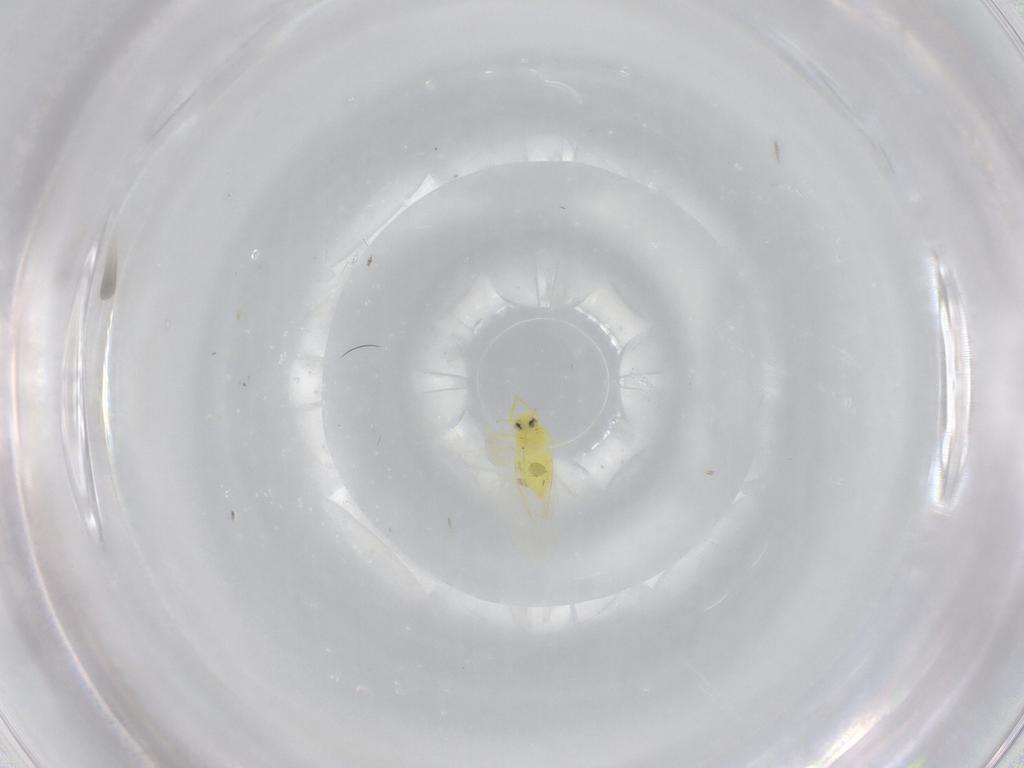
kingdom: Animalia
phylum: Arthropoda
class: Insecta
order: Hemiptera
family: Aleyrodidae
